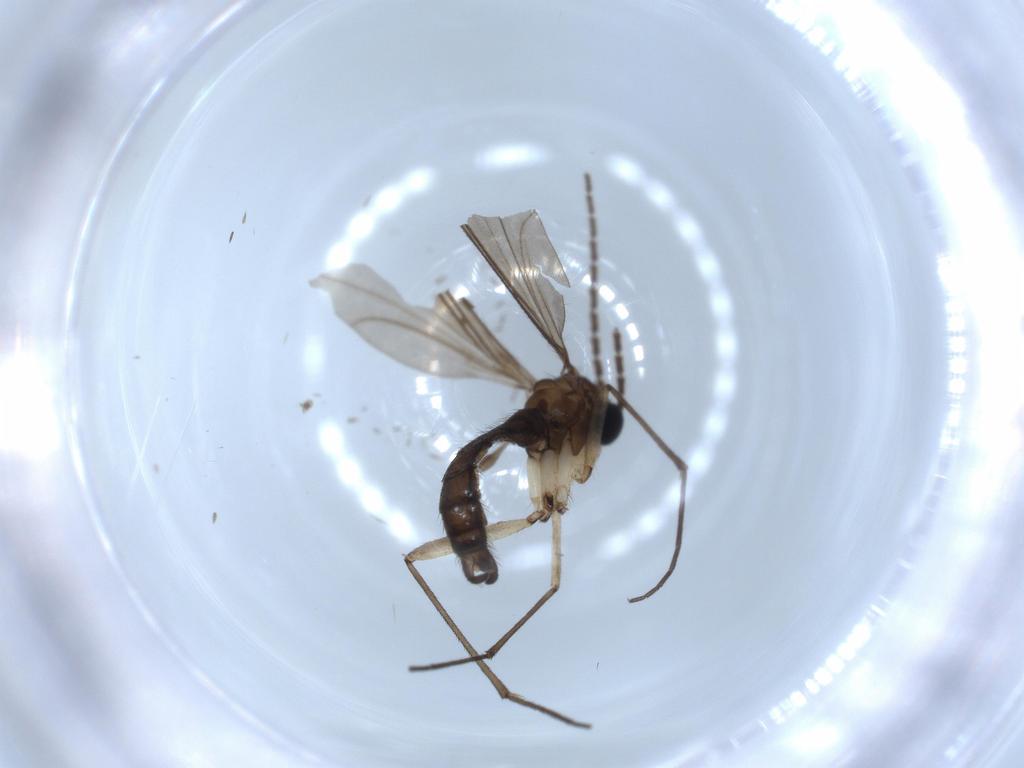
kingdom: Animalia
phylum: Arthropoda
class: Insecta
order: Diptera
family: Sciaridae
